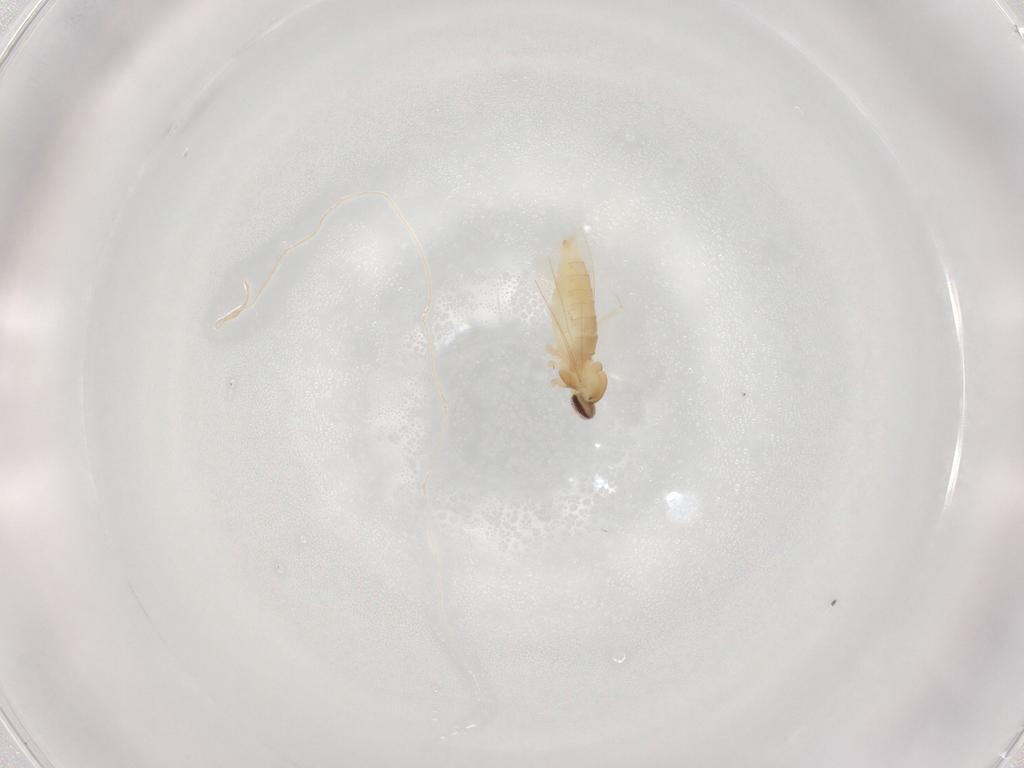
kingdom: Animalia
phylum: Arthropoda
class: Insecta
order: Diptera
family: Cecidomyiidae
